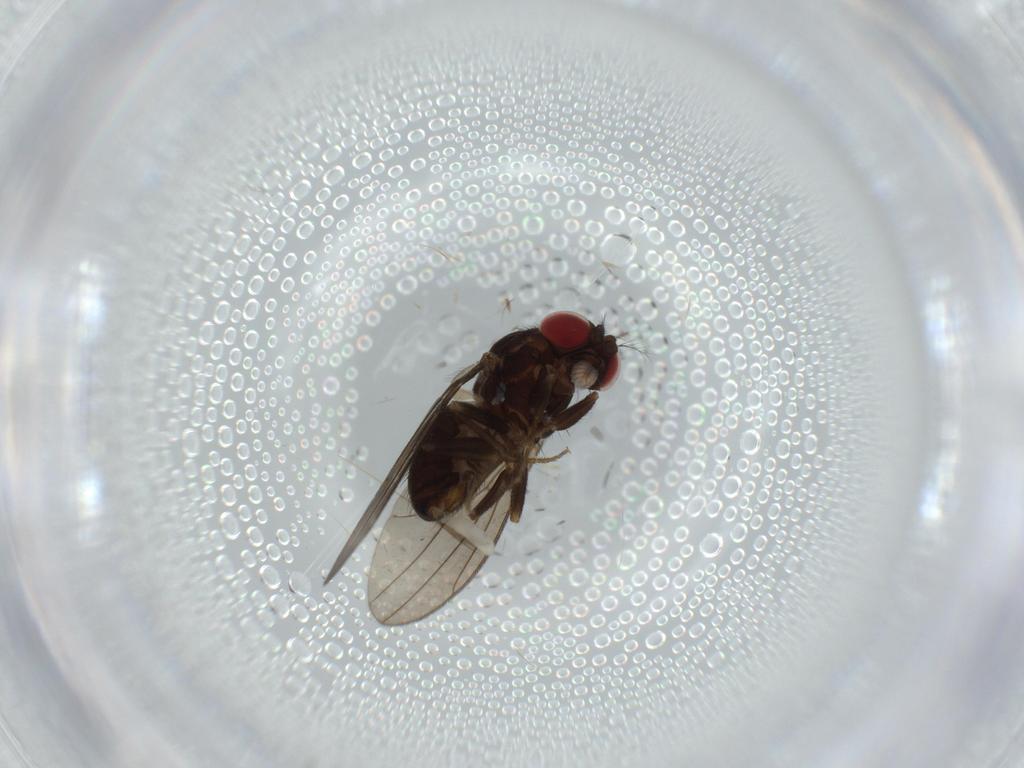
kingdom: Animalia
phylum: Arthropoda
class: Insecta
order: Diptera
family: Drosophilidae
